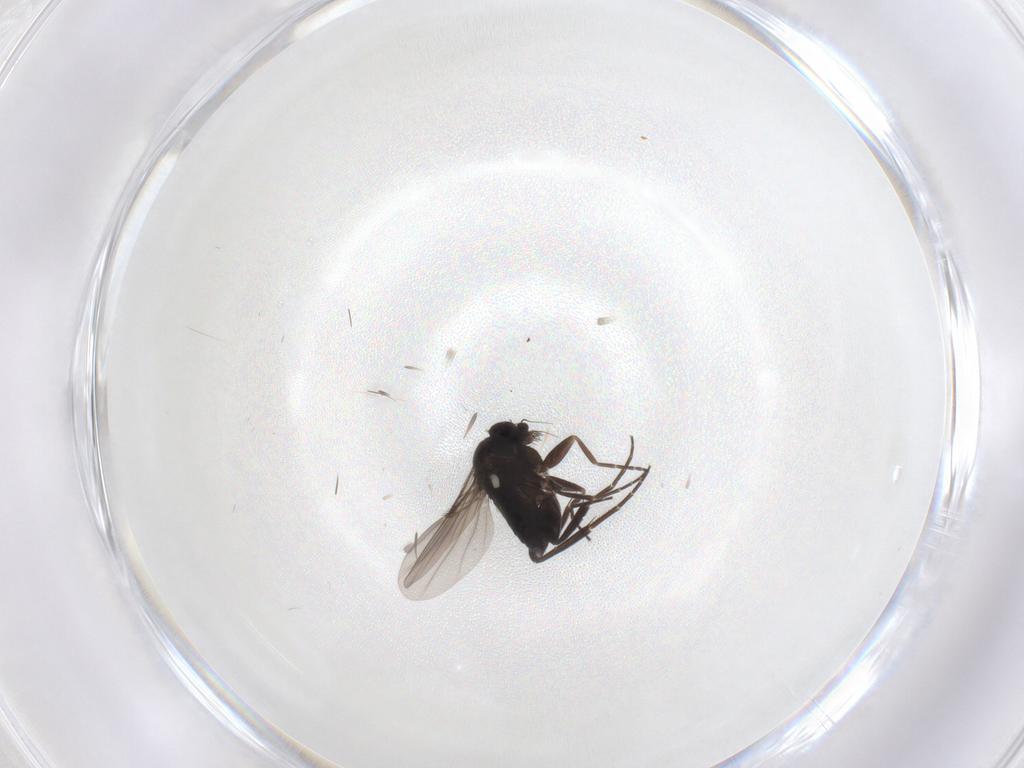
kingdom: Animalia
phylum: Arthropoda
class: Insecta
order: Diptera
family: Phoridae
